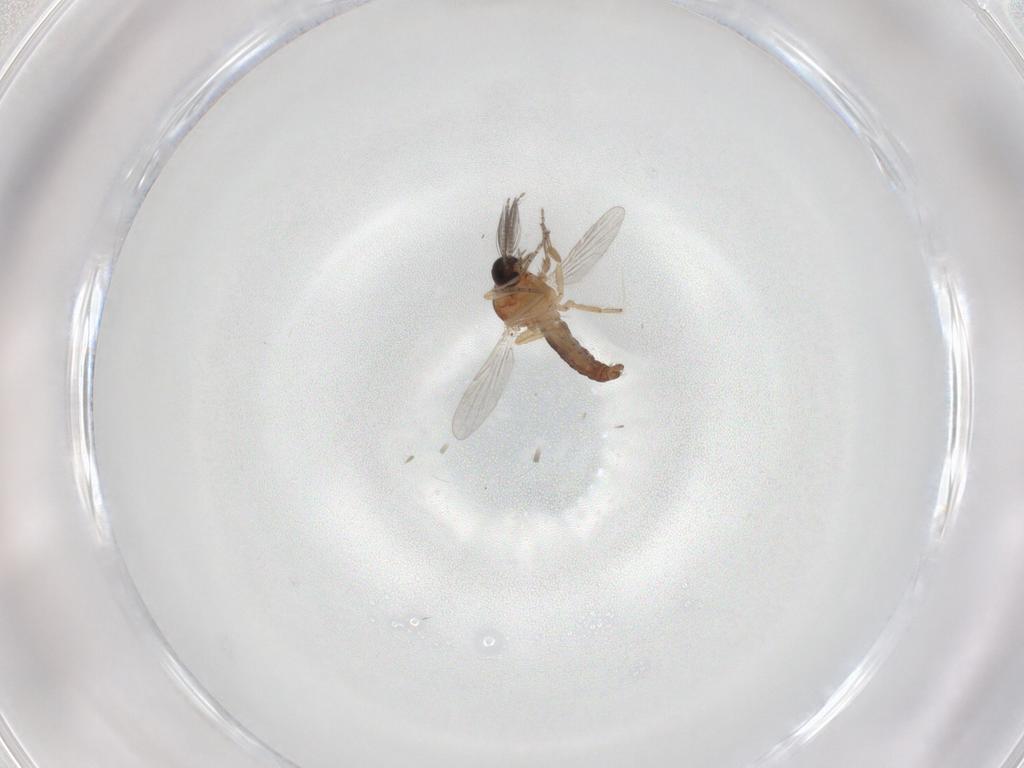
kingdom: Animalia
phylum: Arthropoda
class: Insecta
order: Diptera
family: Ceratopogonidae
